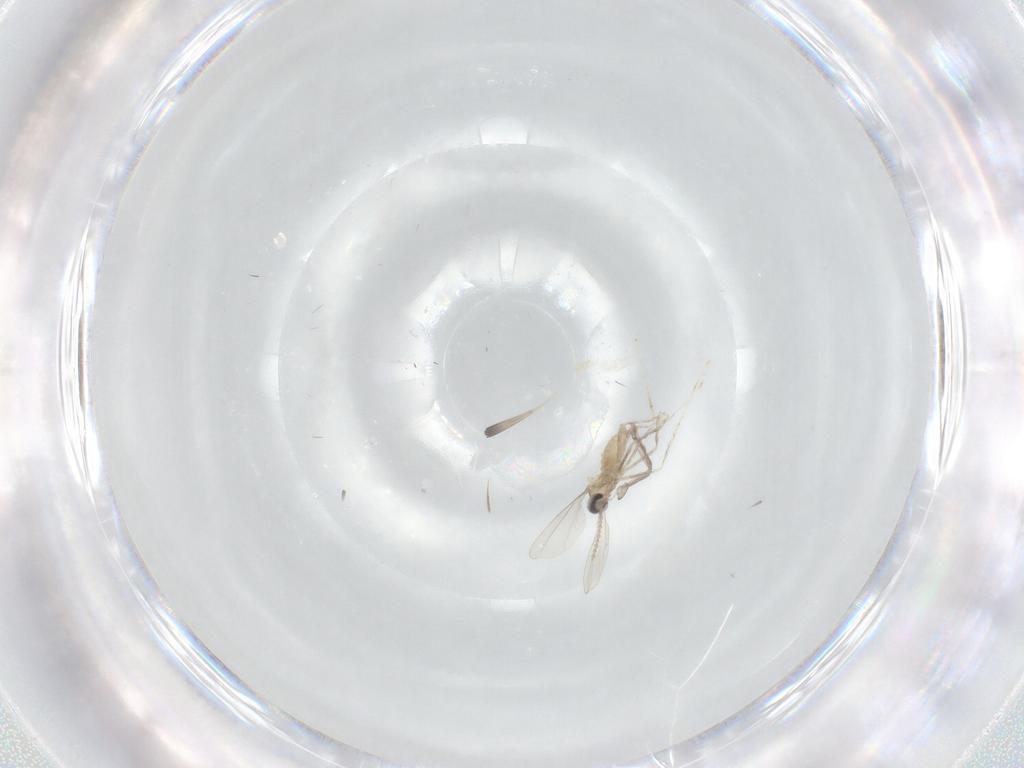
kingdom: Animalia
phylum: Arthropoda
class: Insecta
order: Diptera
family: Cecidomyiidae
